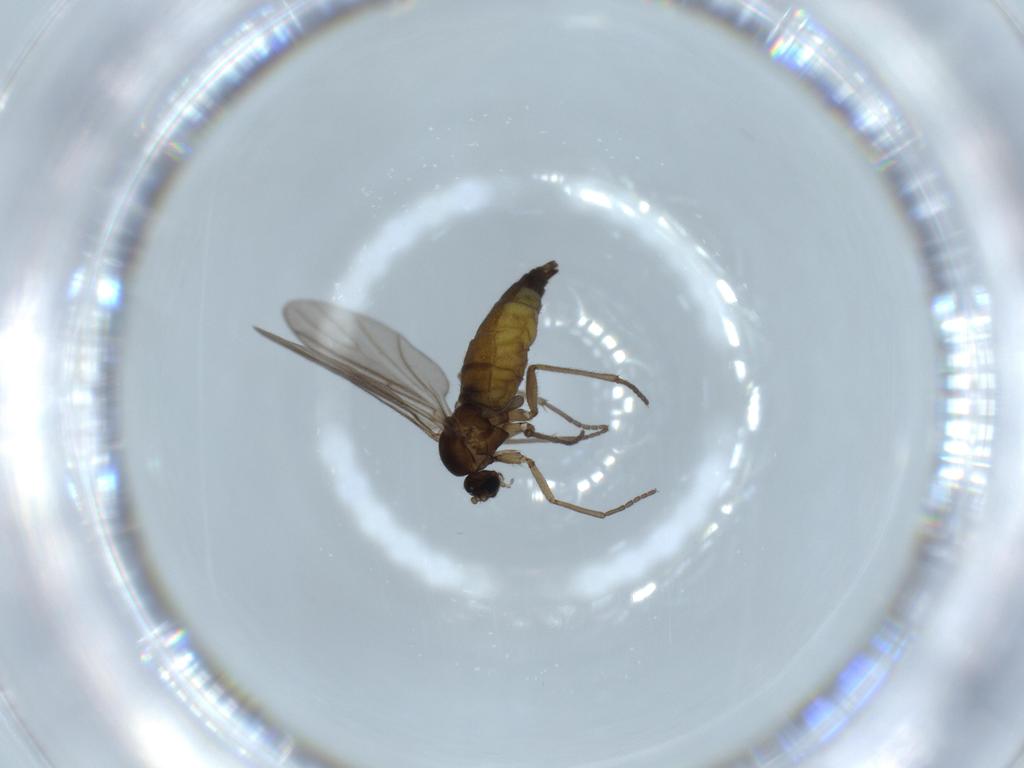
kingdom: Animalia
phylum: Arthropoda
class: Insecta
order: Diptera
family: Sciaridae
